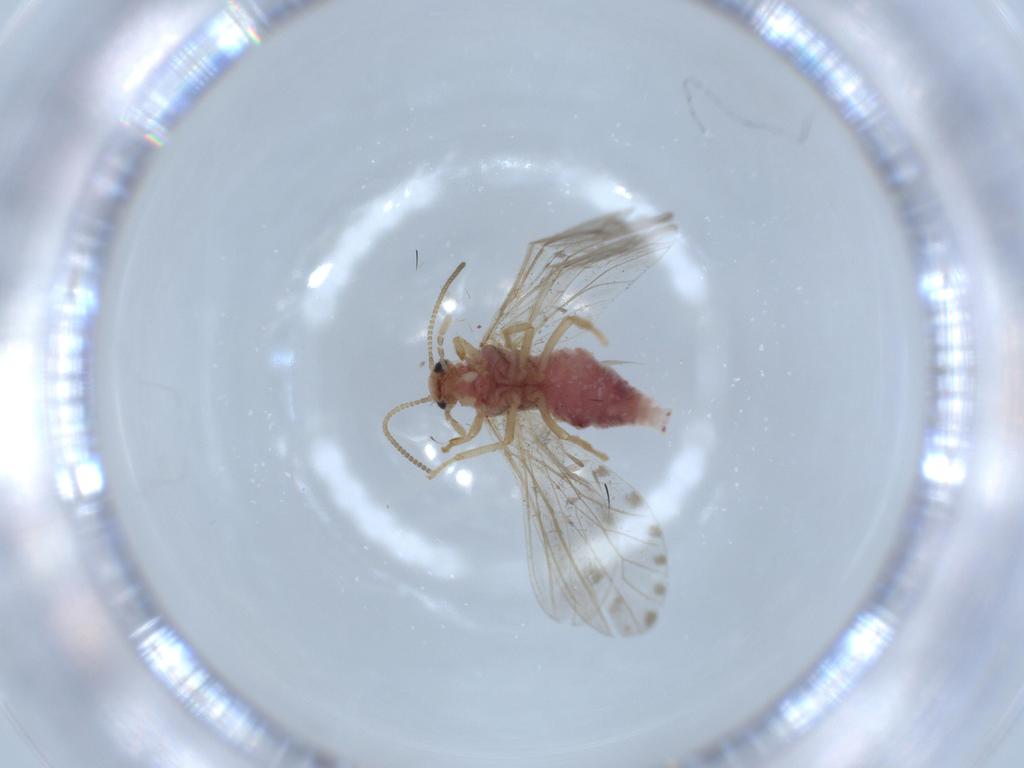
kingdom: Animalia
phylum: Arthropoda
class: Insecta
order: Neuroptera
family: Coniopterygidae
